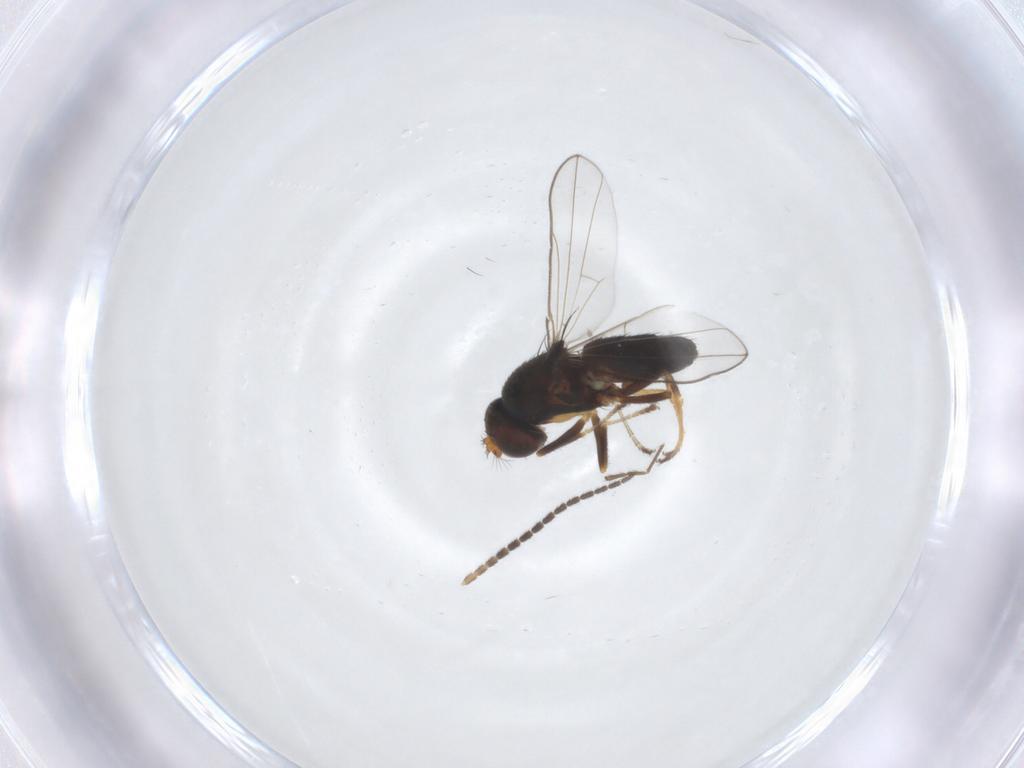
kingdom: Animalia
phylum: Arthropoda
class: Insecta
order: Diptera
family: Ephydridae
